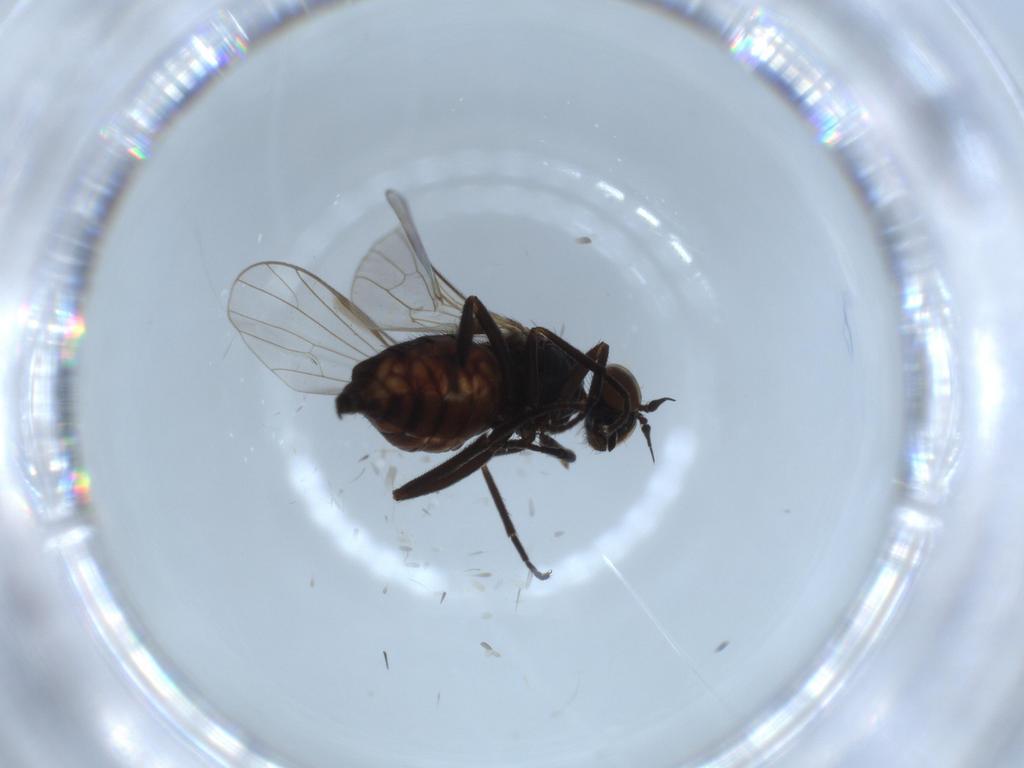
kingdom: Animalia
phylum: Arthropoda
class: Insecta
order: Diptera
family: Empididae
